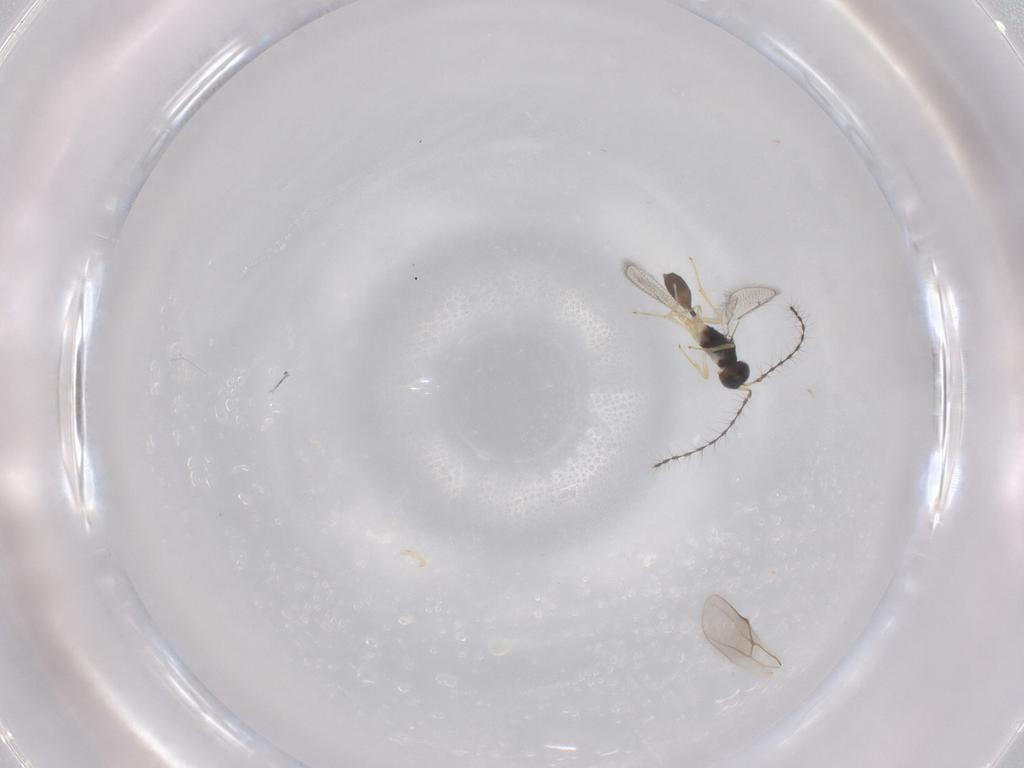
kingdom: Animalia
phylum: Arthropoda
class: Insecta
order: Hymenoptera
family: Diparidae
